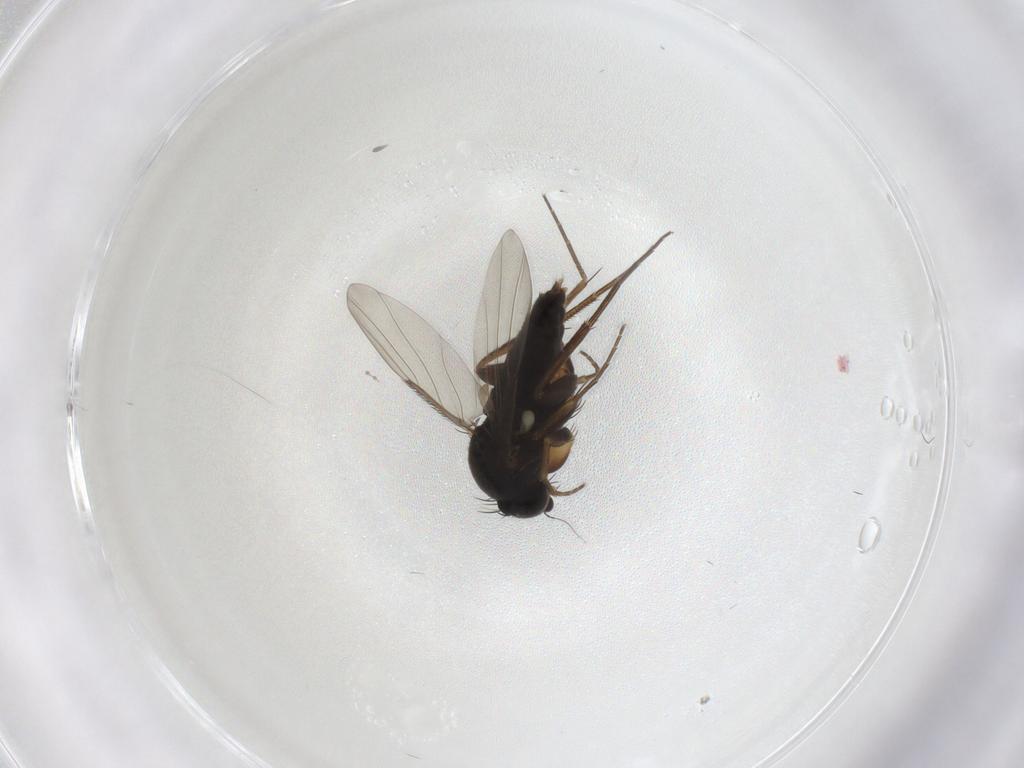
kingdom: Animalia
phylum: Arthropoda
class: Insecta
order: Diptera
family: Phoridae
